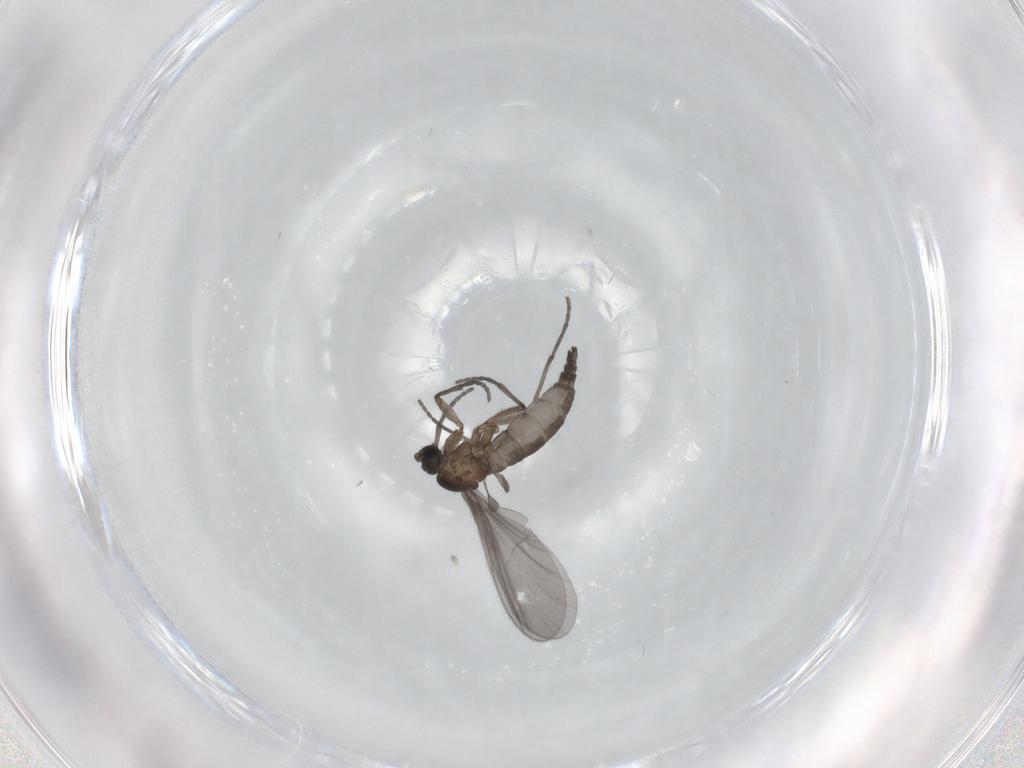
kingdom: Animalia
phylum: Arthropoda
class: Insecta
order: Diptera
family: Sciaridae
